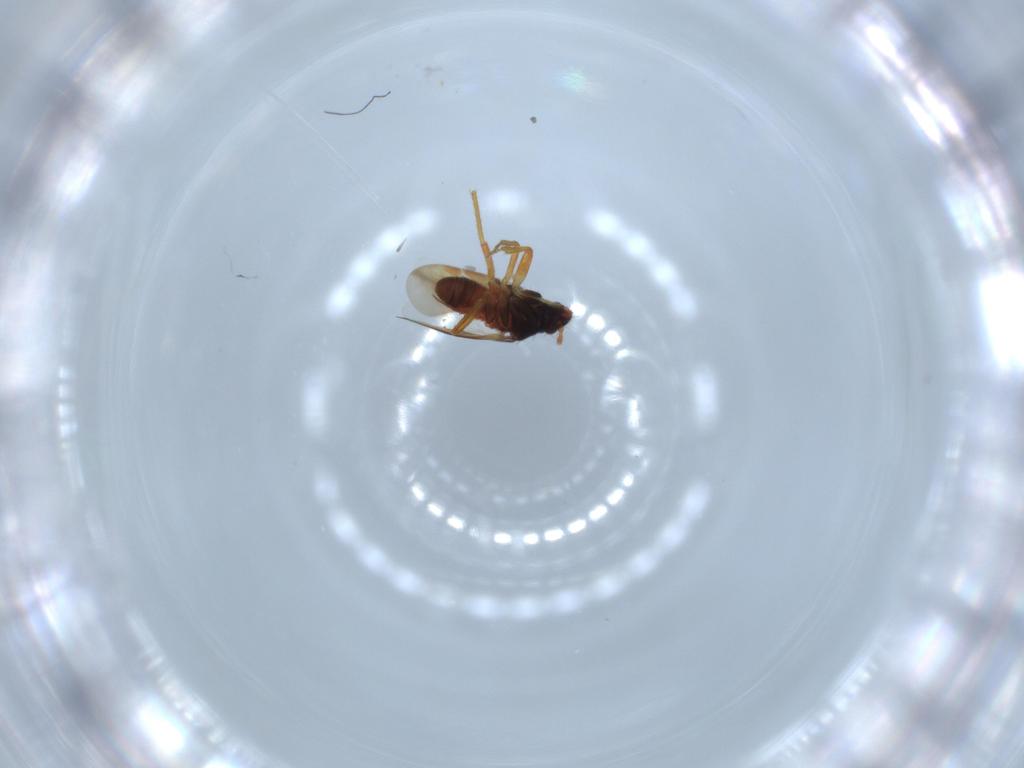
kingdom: Animalia
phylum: Arthropoda
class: Insecta
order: Hemiptera
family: Ceratocombidae
